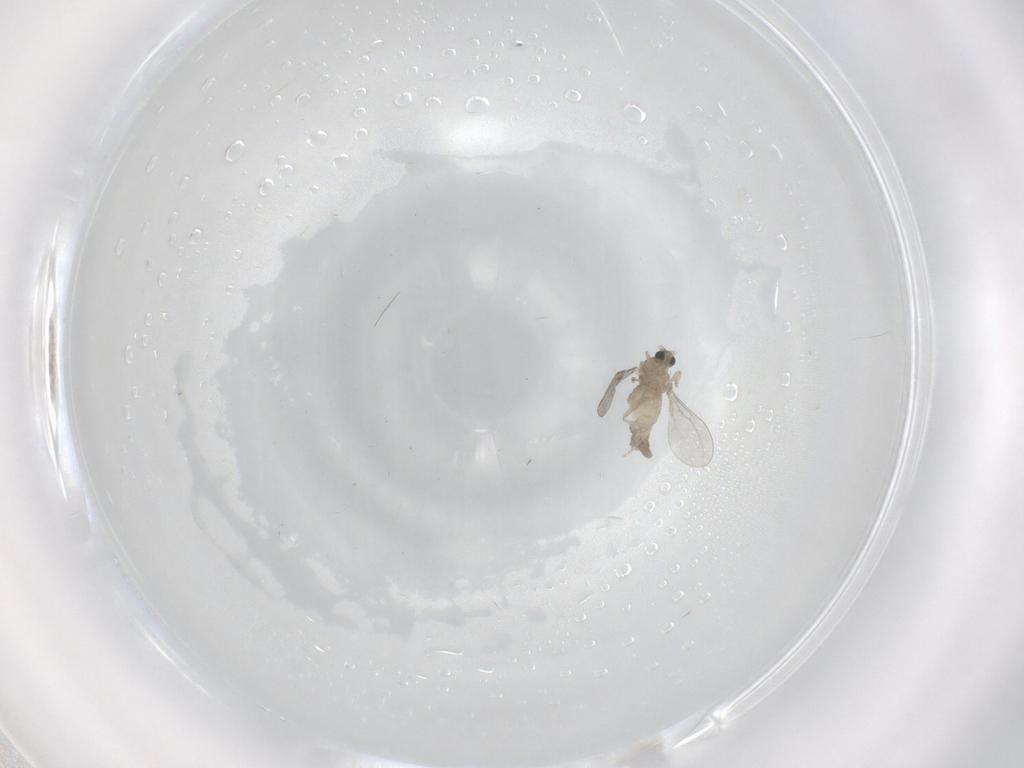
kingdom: Animalia
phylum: Arthropoda
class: Insecta
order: Diptera
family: Cecidomyiidae
